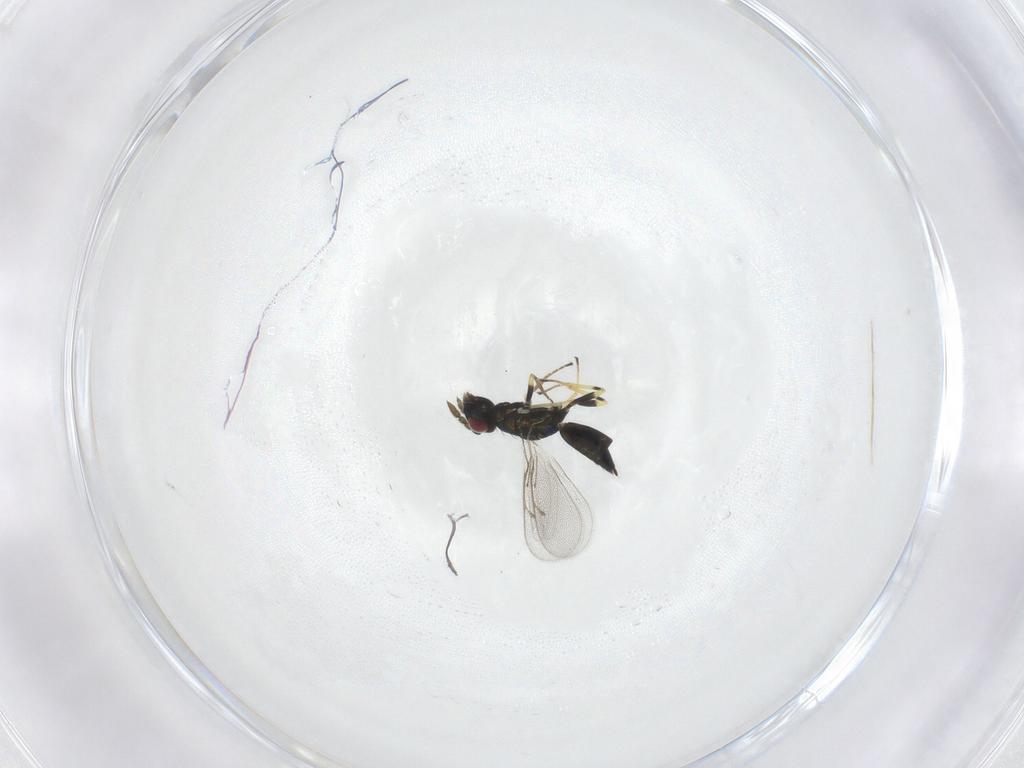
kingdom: Animalia
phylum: Arthropoda
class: Insecta
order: Hymenoptera
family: Eulophidae
